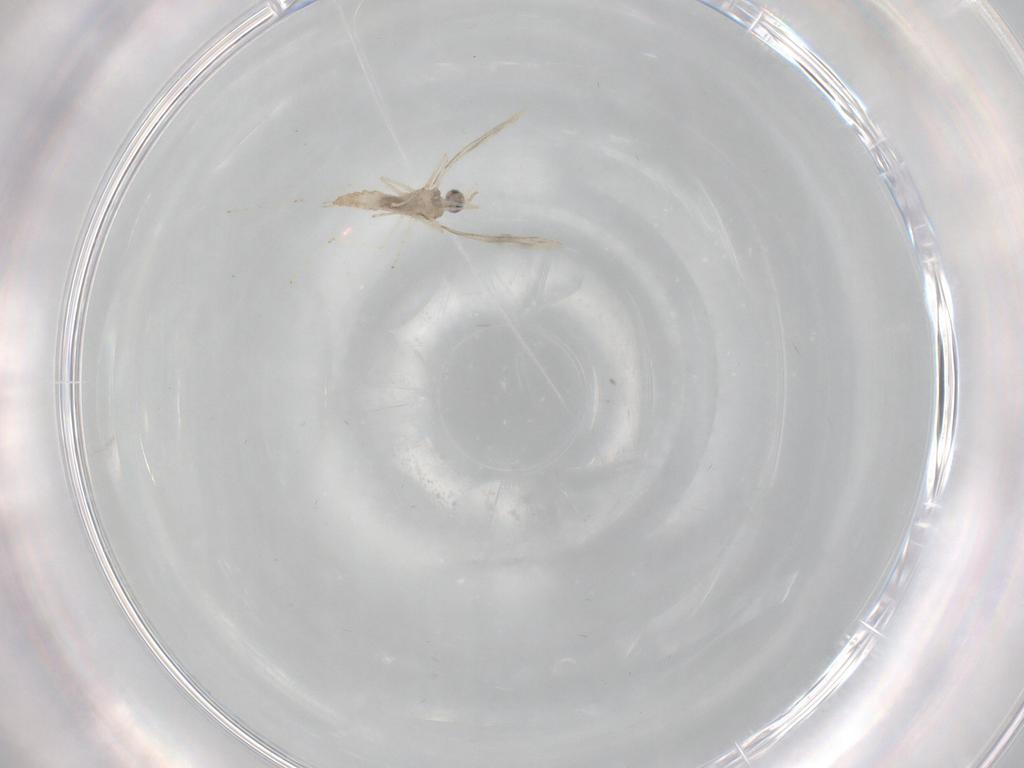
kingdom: Animalia
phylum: Arthropoda
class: Insecta
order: Diptera
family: Cecidomyiidae
